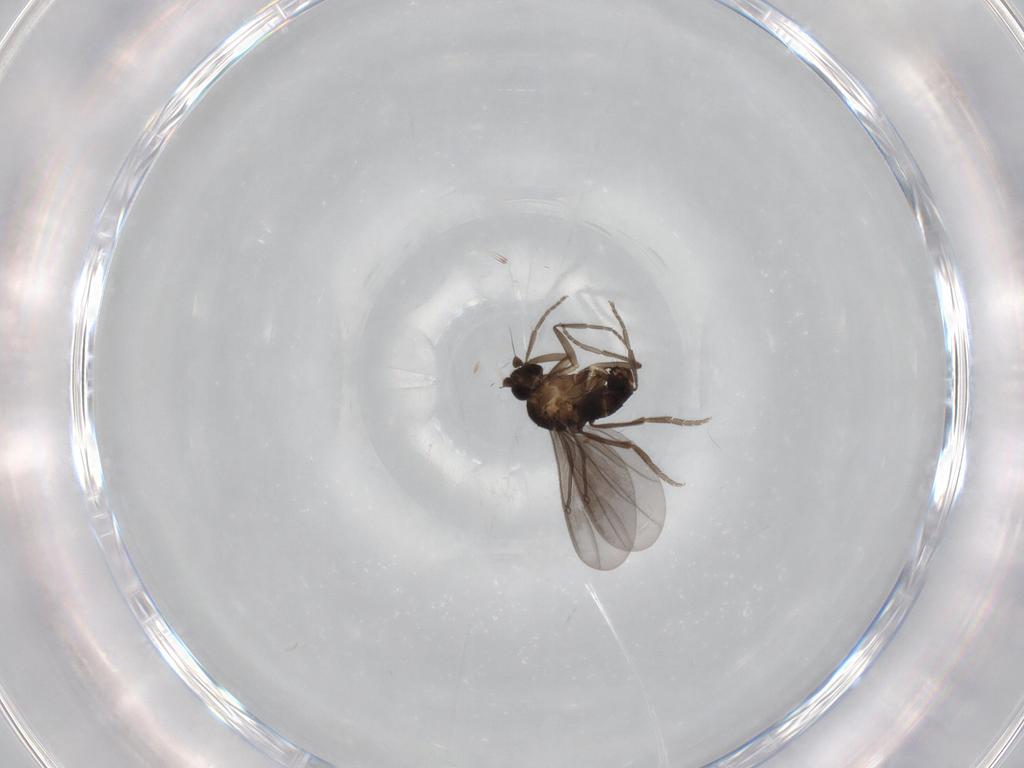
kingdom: Animalia
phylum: Arthropoda
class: Insecta
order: Diptera
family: Phoridae
